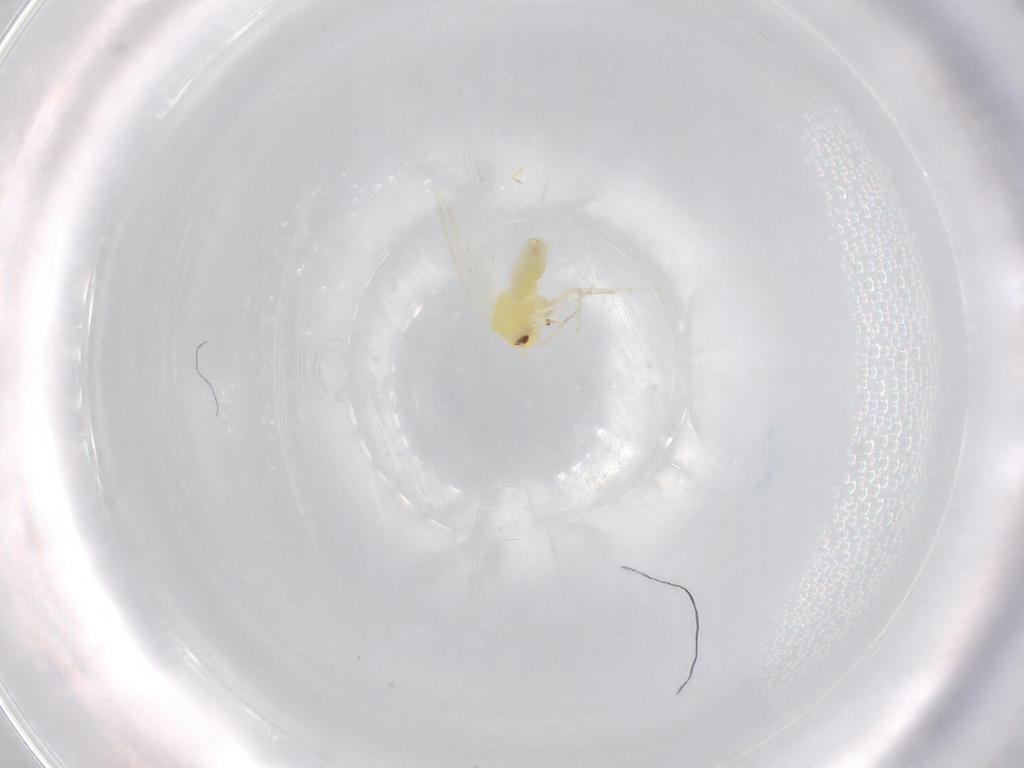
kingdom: Animalia
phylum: Arthropoda
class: Insecta
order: Hemiptera
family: Aleyrodidae
